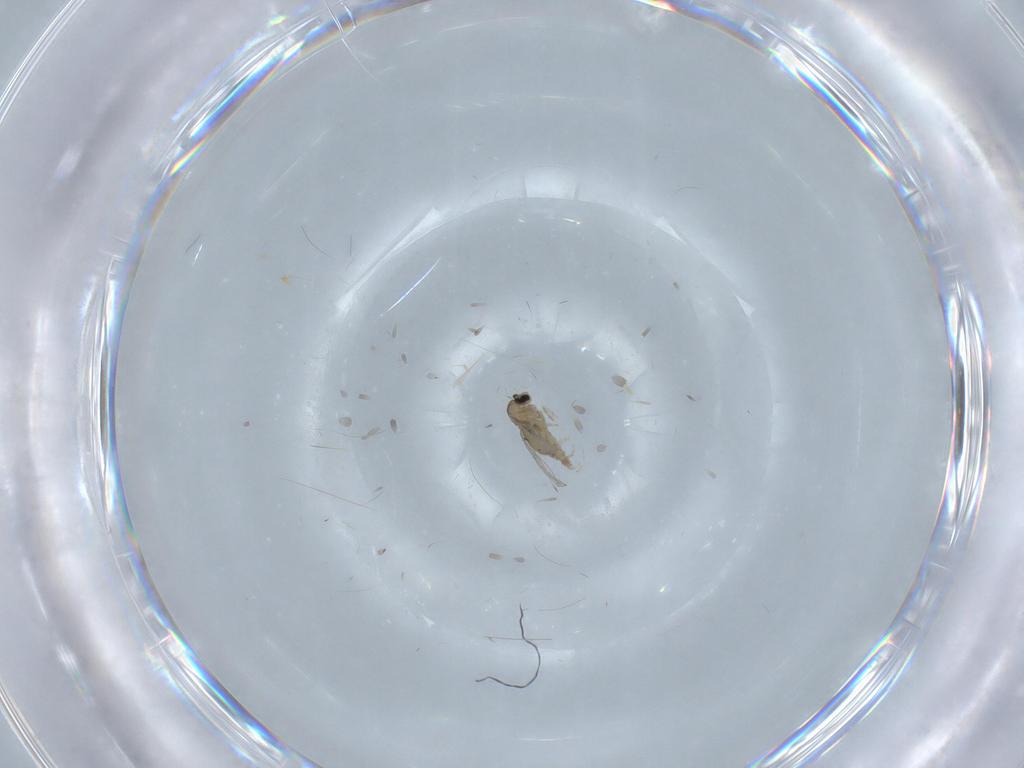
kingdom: Animalia
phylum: Arthropoda
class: Insecta
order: Diptera
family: Cecidomyiidae
